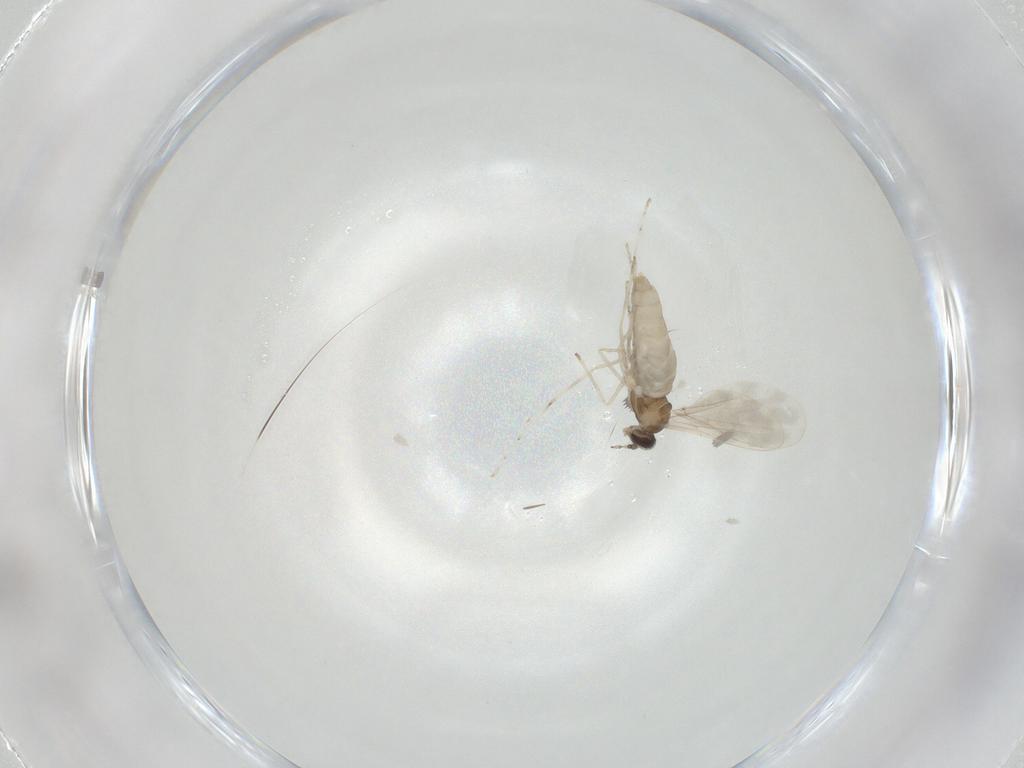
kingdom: Animalia
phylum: Arthropoda
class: Insecta
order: Diptera
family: Cecidomyiidae
